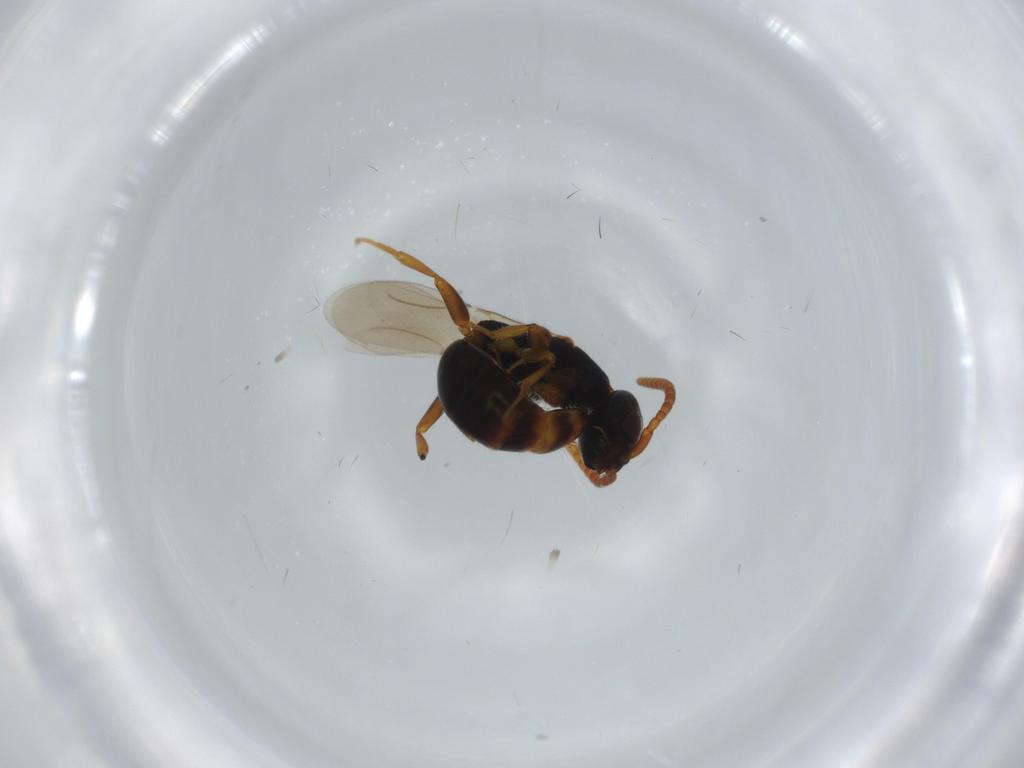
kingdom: Animalia
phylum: Arthropoda
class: Insecta
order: Hymenoptera
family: Bethylidae
